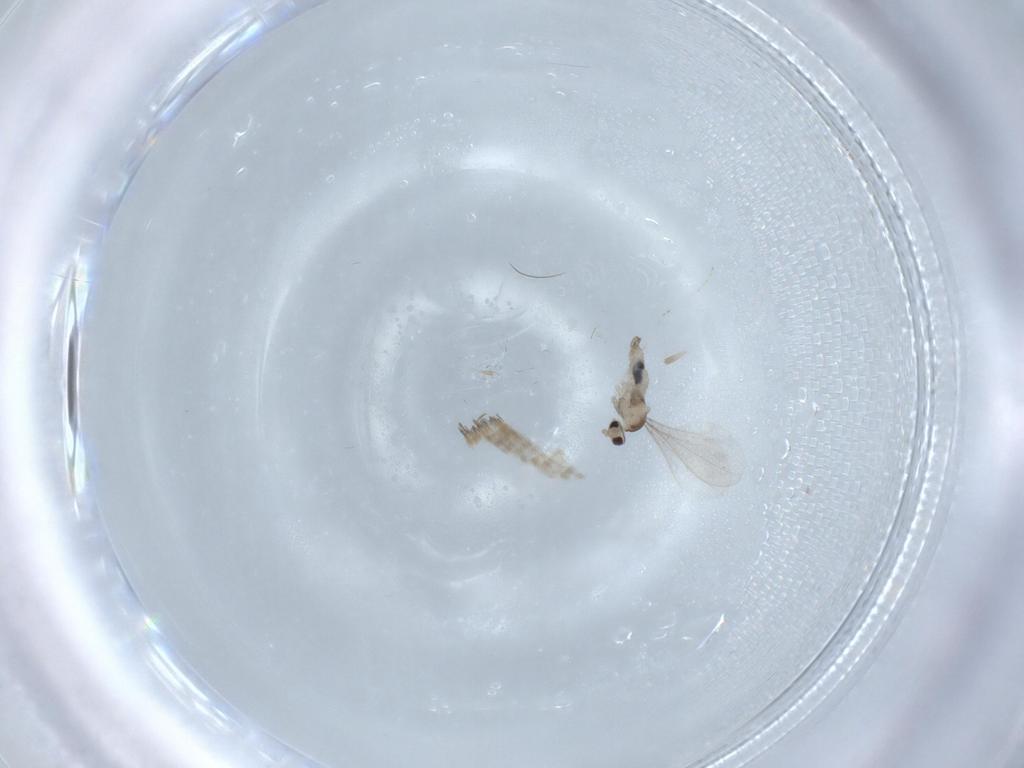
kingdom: Animalia
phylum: Arthropoda
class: Insecta
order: Diptera
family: Cecidomyiidae
